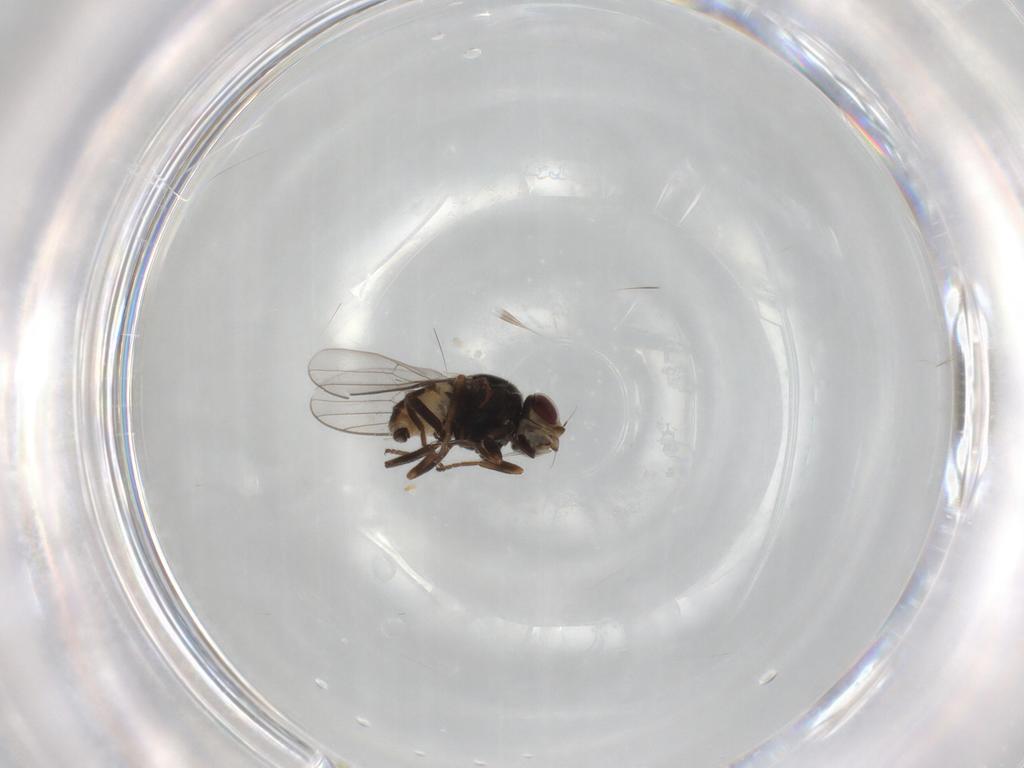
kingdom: Animalia
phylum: Arthropoda
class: Insecta
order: Diptera
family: Chloropidae
